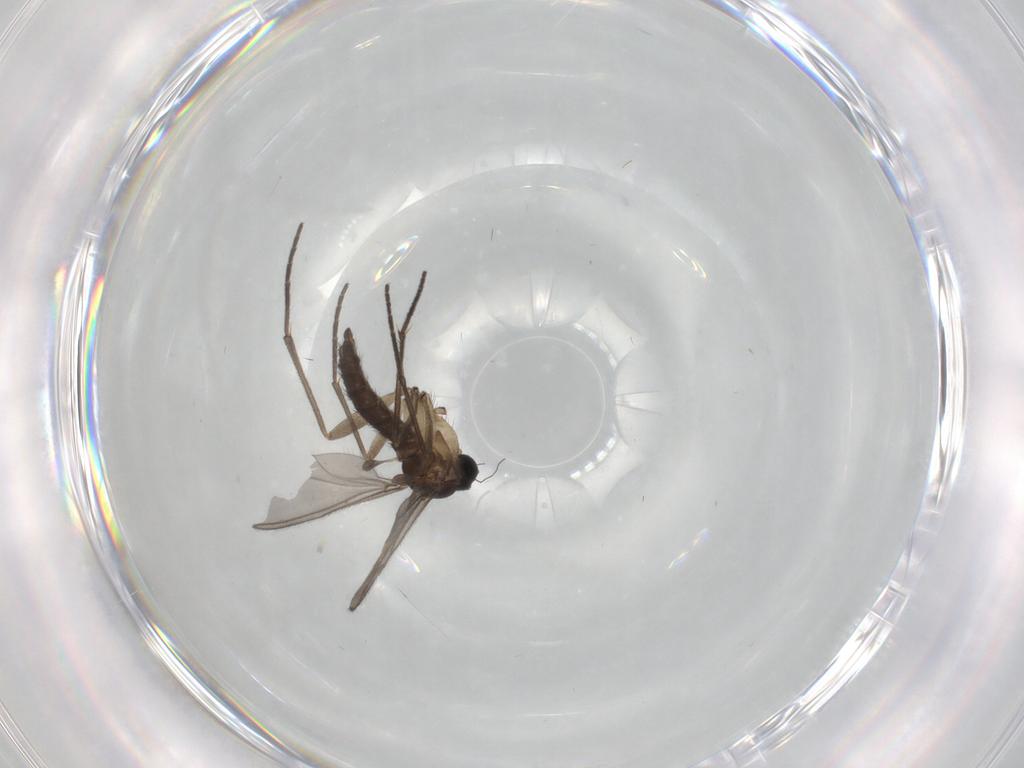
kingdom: Animalia
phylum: Arthropoda
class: Insecta
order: Diptera
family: Sciaridae
